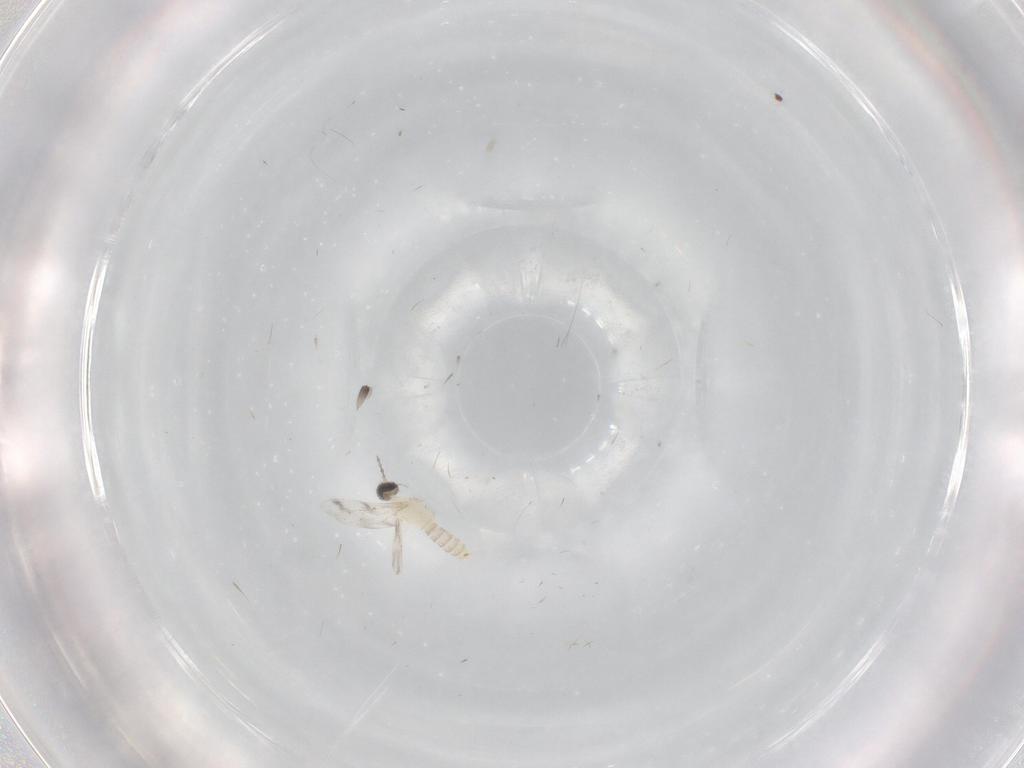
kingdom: Animalia
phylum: Arthropoda
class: Insecta
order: Diptera
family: Cecidomyiidae
